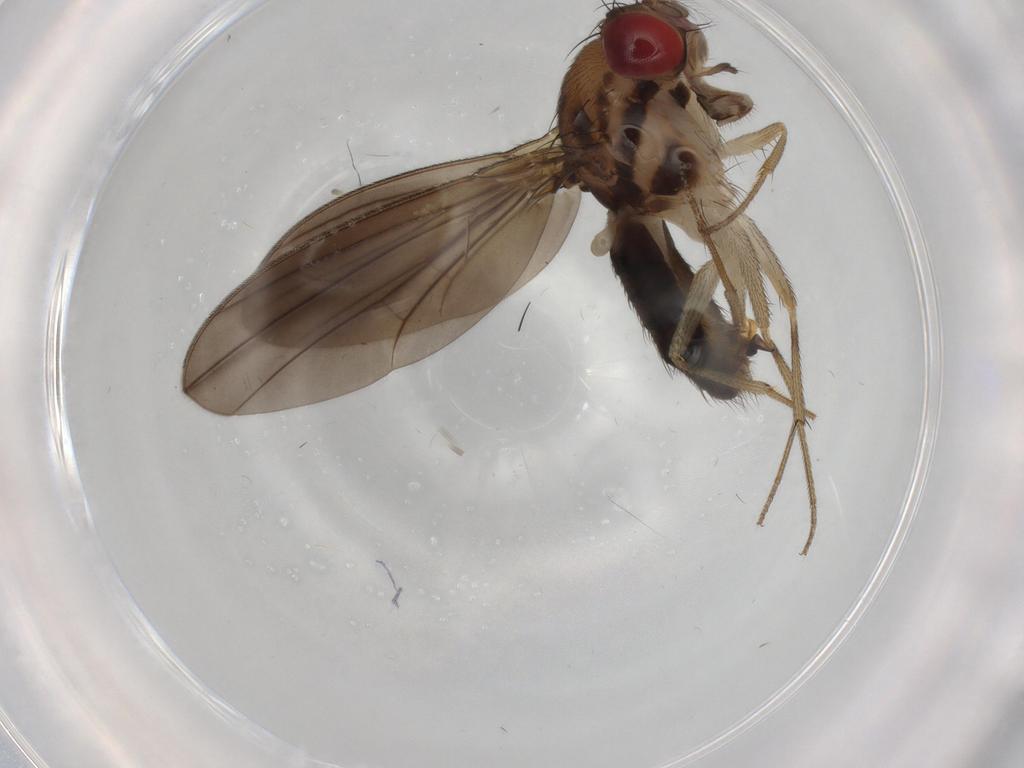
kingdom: Animalia
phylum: Arthropoda
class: Insecta
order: Diptera
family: Drosophilidae
